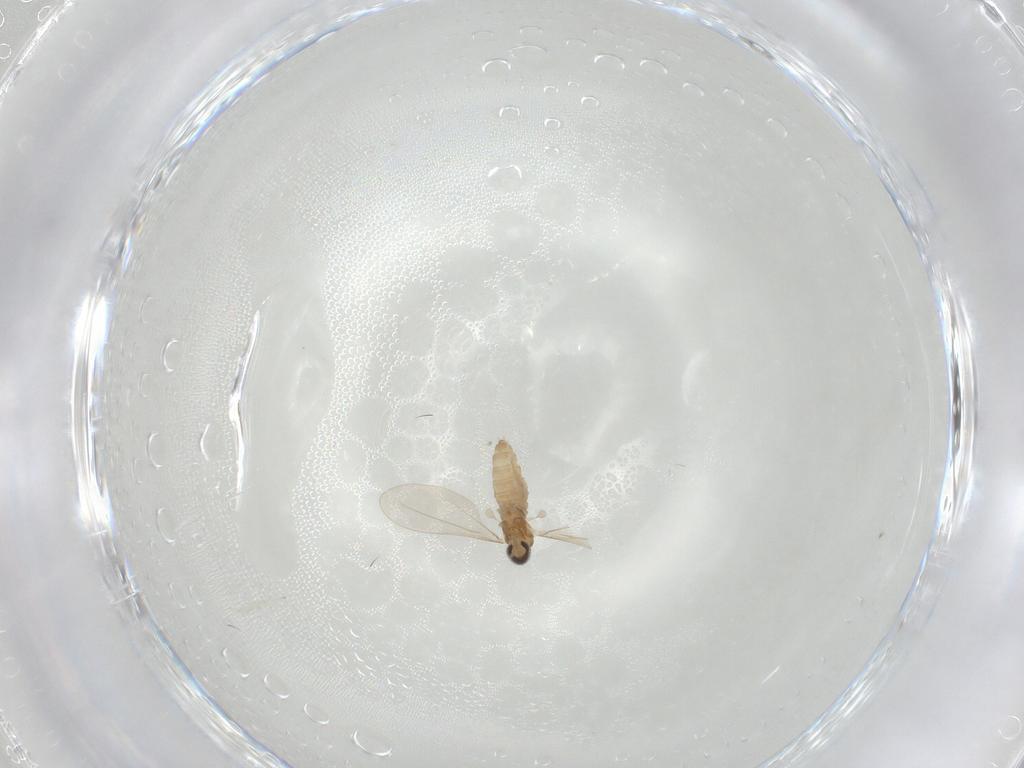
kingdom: Animalia
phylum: Arthropoda
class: Insecta
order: Diptera
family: Cecidomyiidae
